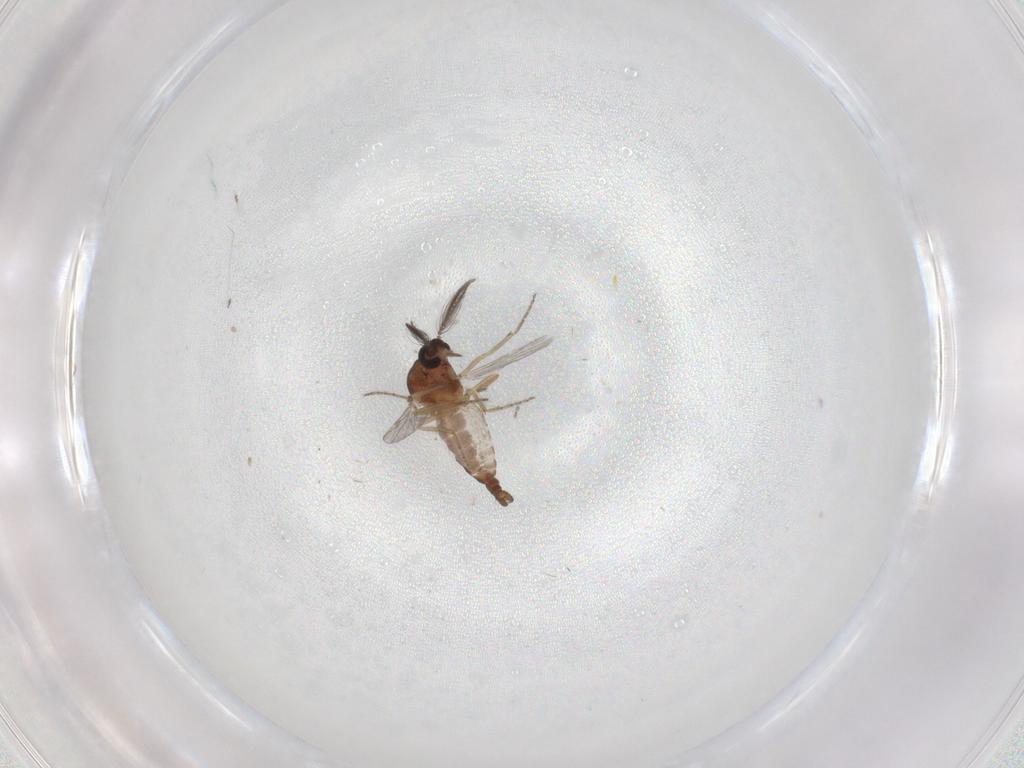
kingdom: Animalia
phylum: Arthropoda
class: Insecta
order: Diptera
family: Ceratopogonidae
